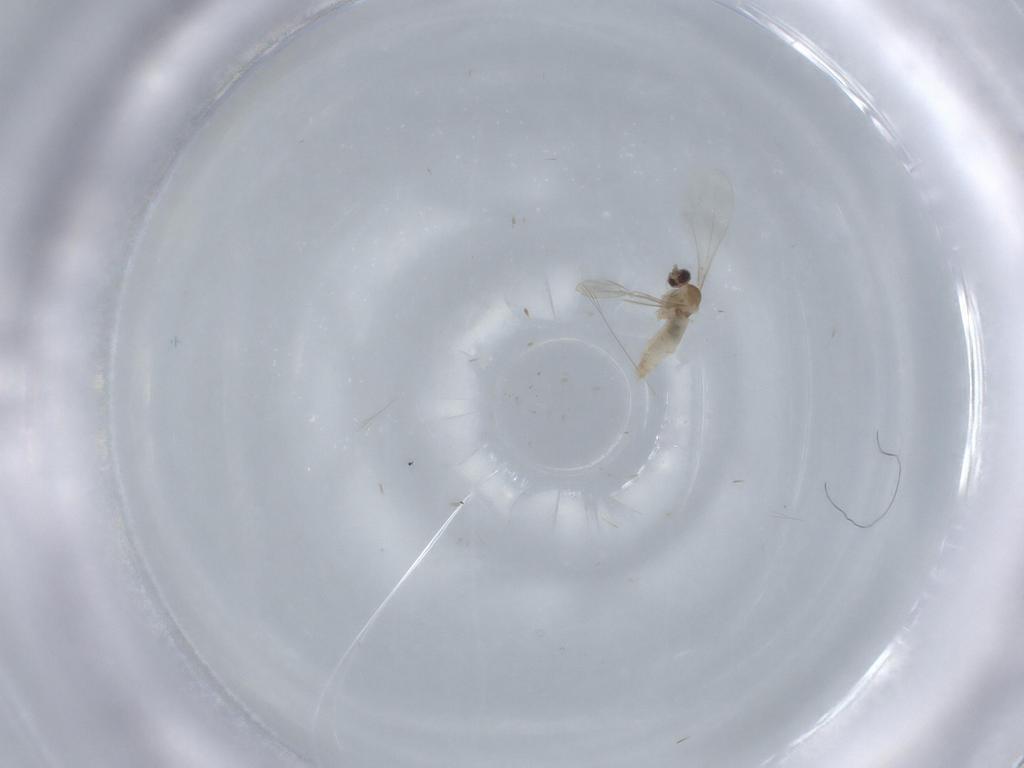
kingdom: Animalia
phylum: Arthropoda
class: Insecta
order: Diptera
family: Cecidomyiidae
